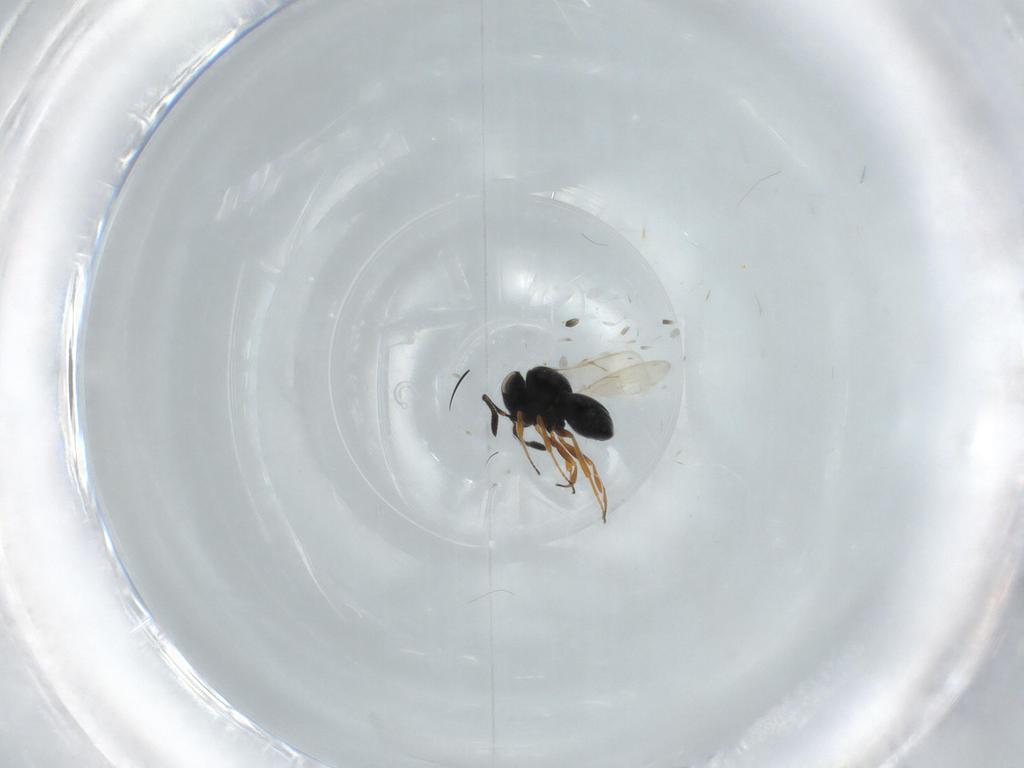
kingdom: Animalia
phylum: Arthropoda
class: Insecta
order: Hymenoptera
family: Scelionidae
